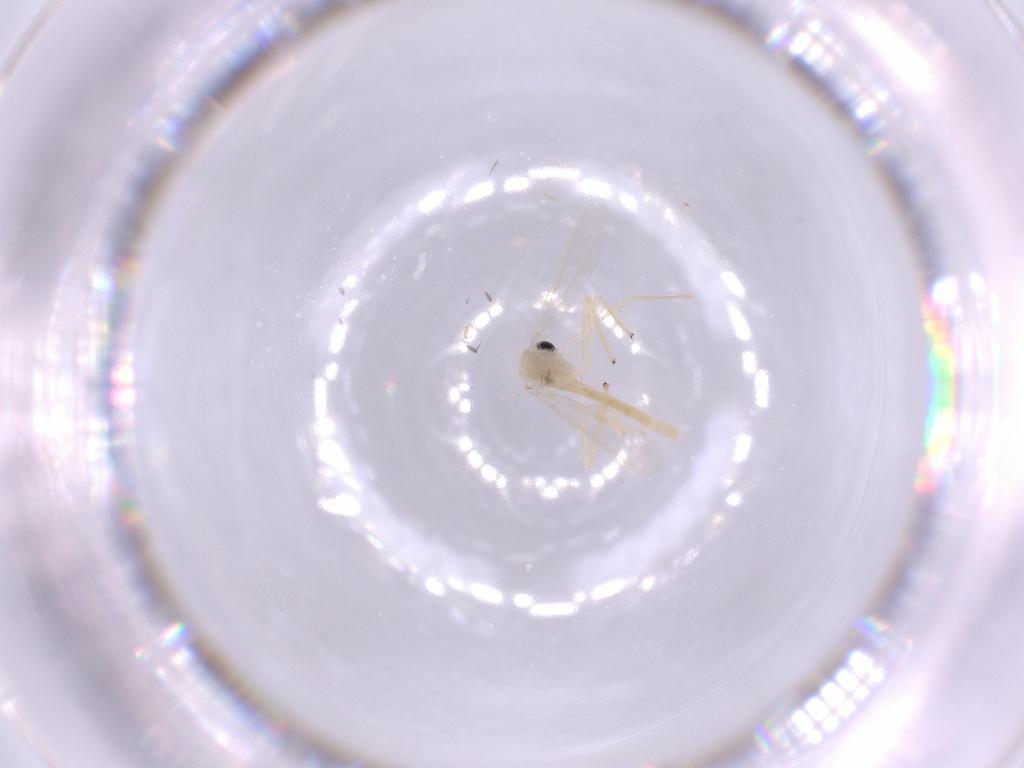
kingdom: Animalia
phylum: Arthropoda
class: Insecta
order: Diptera
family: Chironomidae
